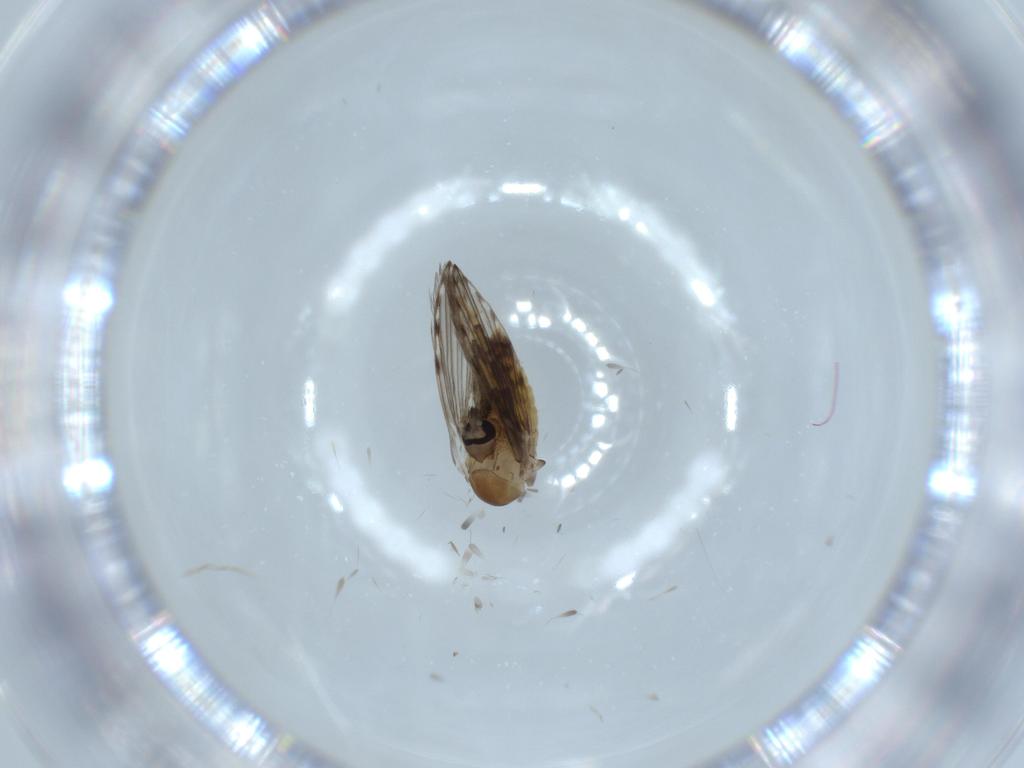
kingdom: Animalia
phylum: Arthropoda
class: Insecta
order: Diptera
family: Psychodidae
